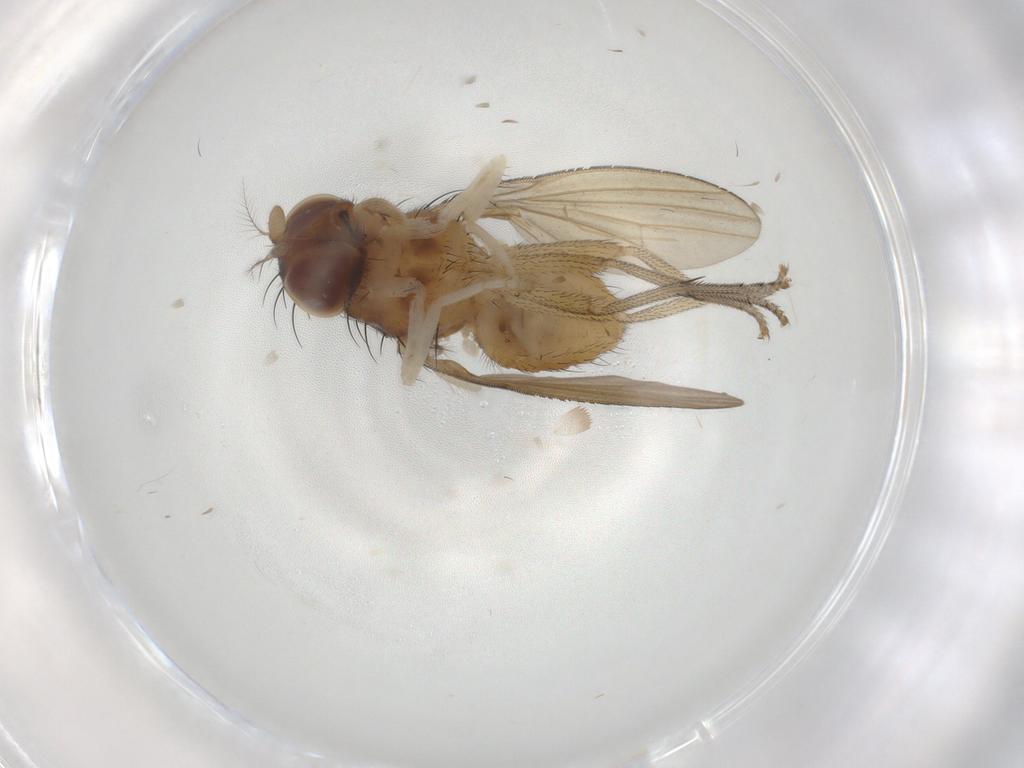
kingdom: Animalia
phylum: Arthropoda
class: Insecta
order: Diptera
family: Lauxaniidae
